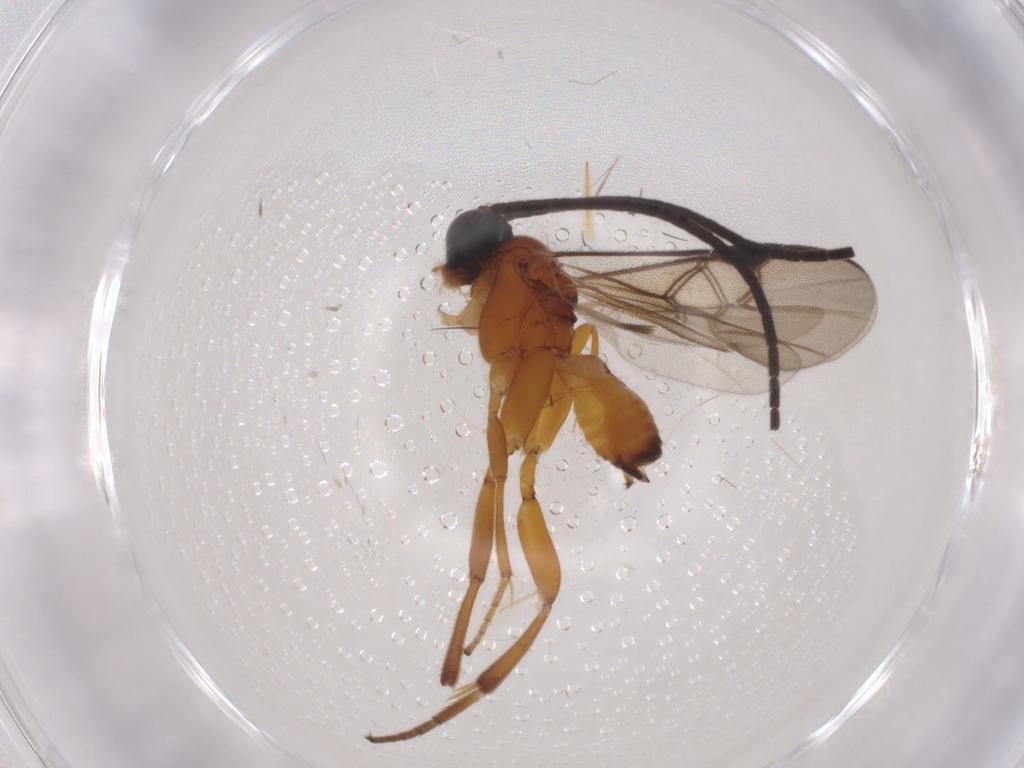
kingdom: Animalia
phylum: Arthropoda
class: Insecta
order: Hymenoptera
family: Braconidae
